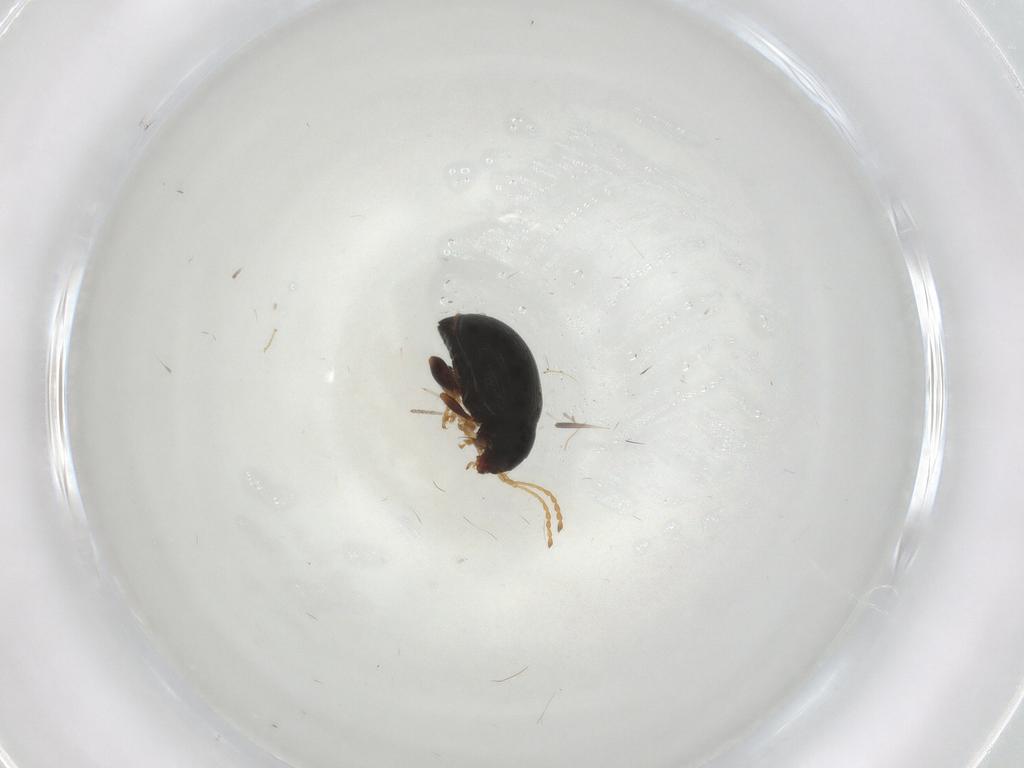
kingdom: Animalia
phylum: Arthropoda
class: Insecta
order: Coleoptera
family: Chrysomelidae
